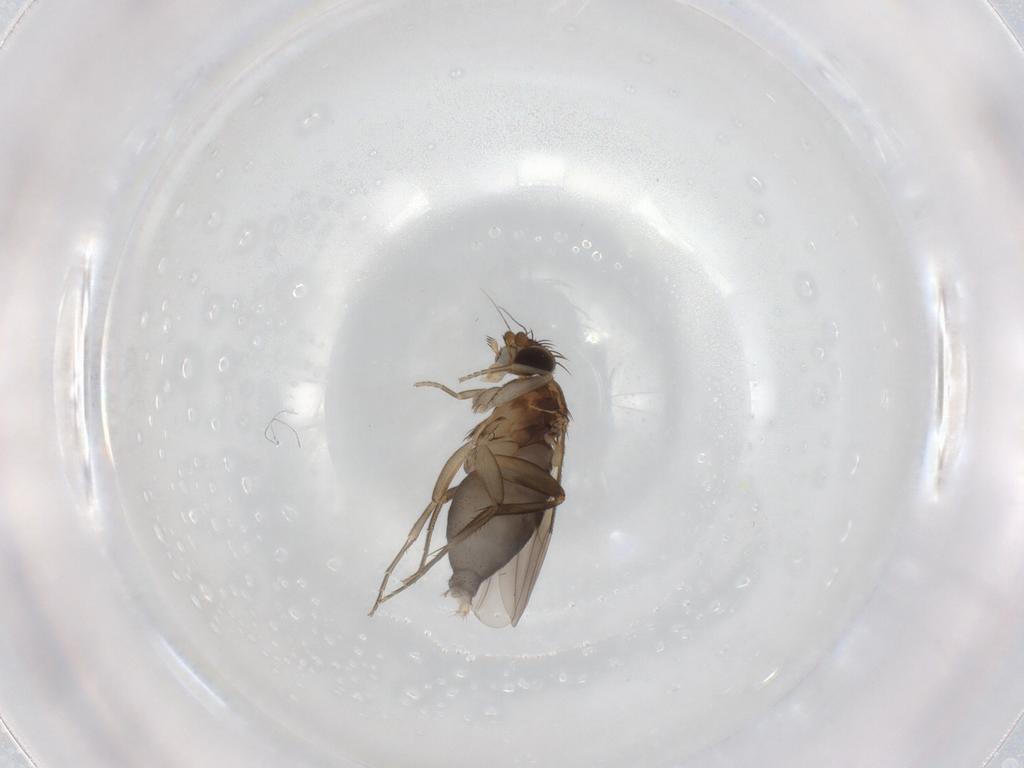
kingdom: Animalia
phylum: Arthropoda
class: Insecta
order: Diptera
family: Phoridae
